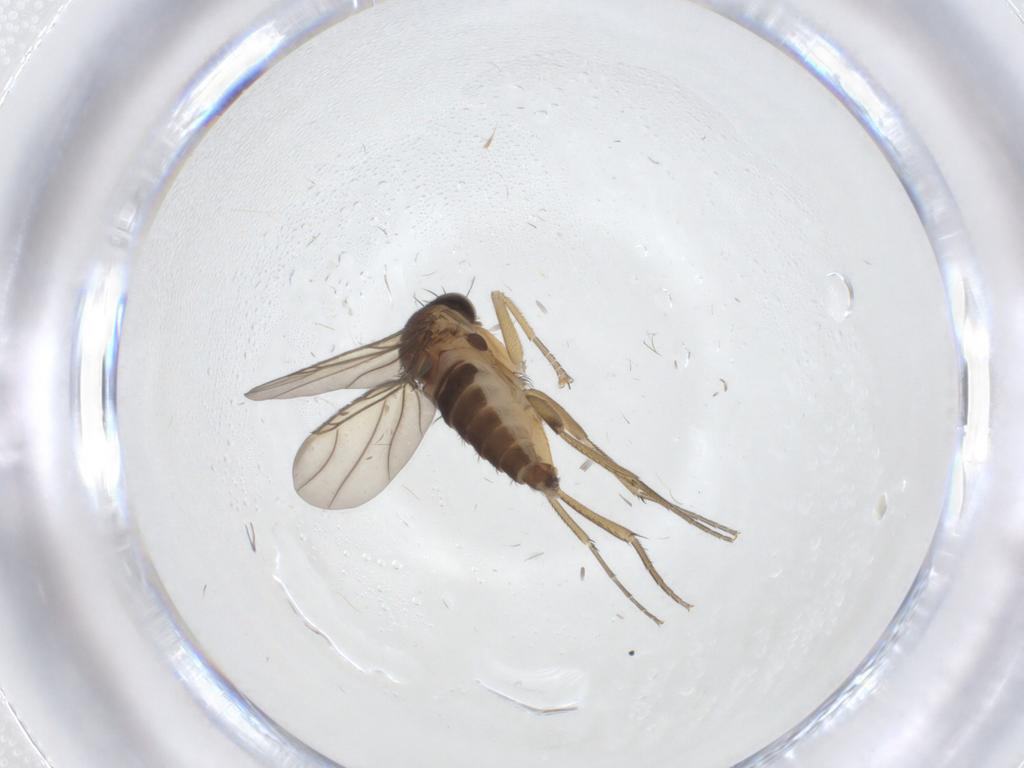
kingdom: Animalia
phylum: Arthropoda
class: Insecta
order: Diptera
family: Phoridae
